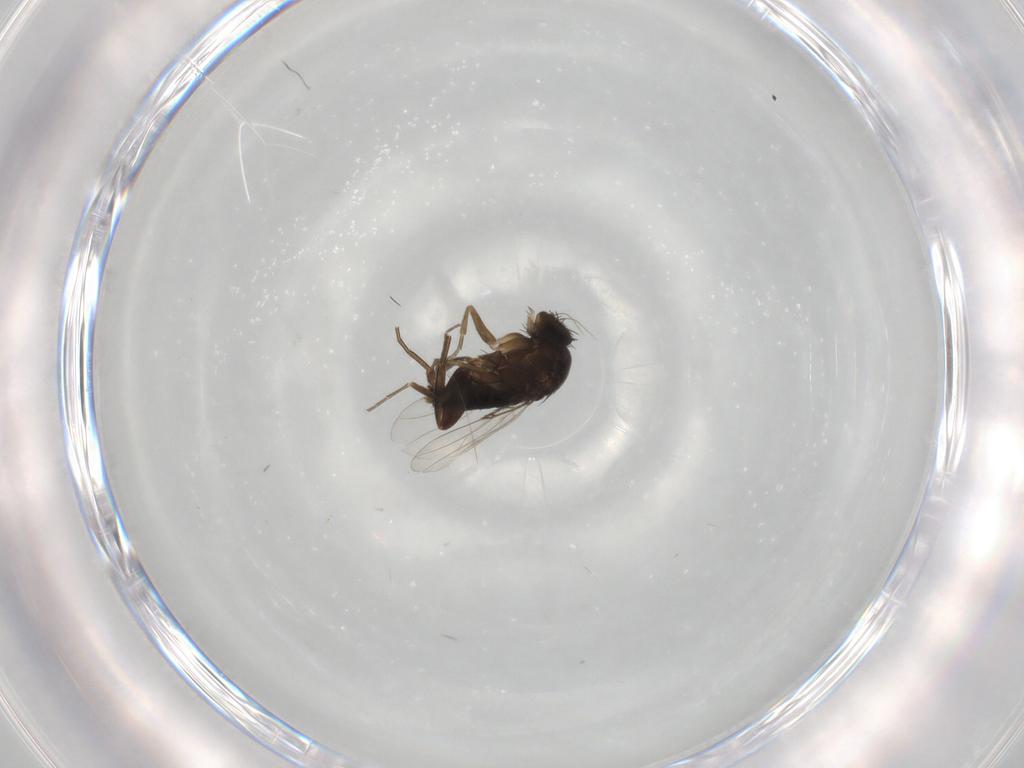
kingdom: Animalia
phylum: Arthropoda
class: Insecta
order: Diptera
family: Phoridae
